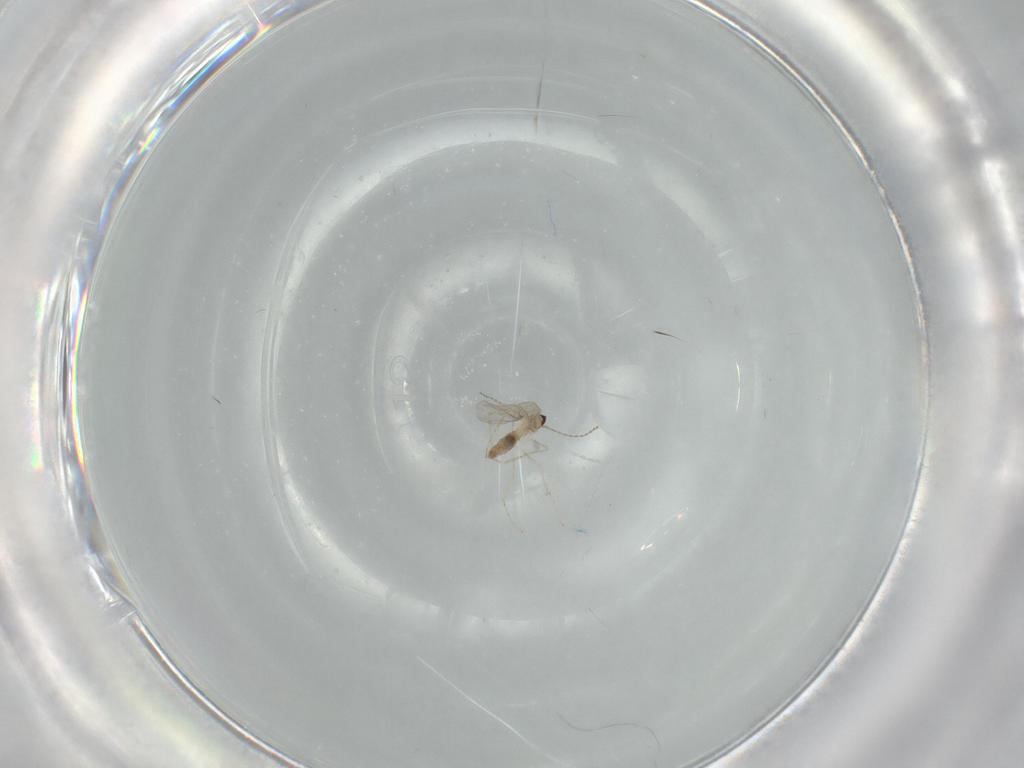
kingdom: Animalia
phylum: Arthropoda
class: Insecta
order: Diptera
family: Cecidomyiidae
